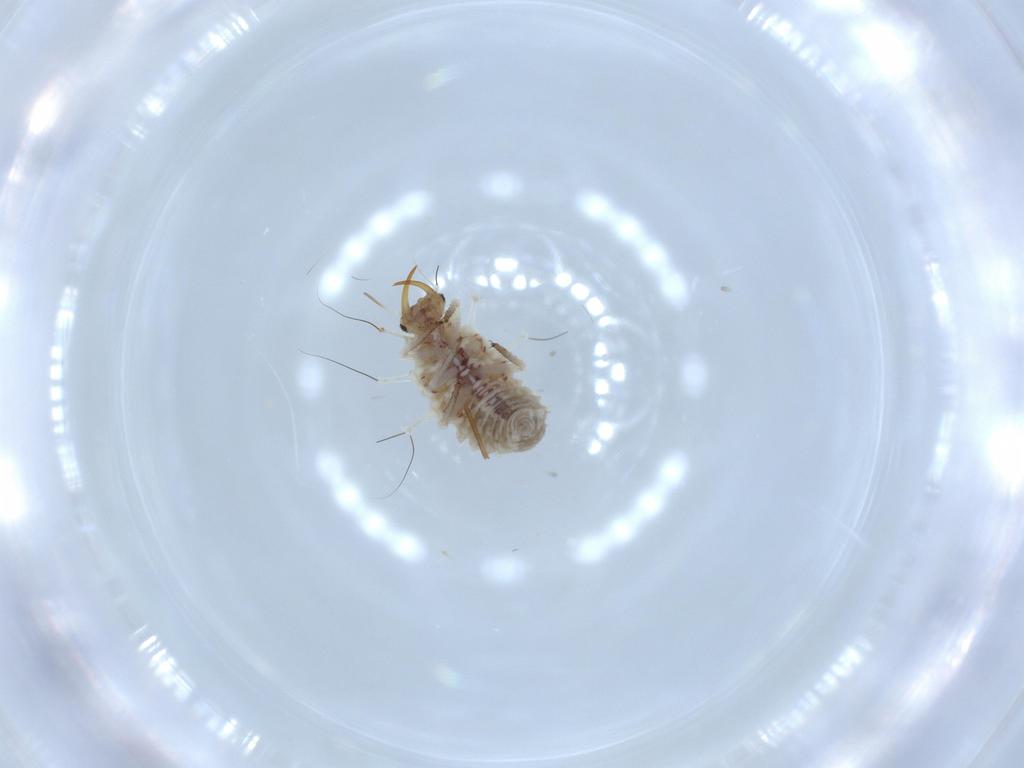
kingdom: Animalia
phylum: Arthropoda
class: Insecta
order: Neuroptera
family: Chrysopidae
